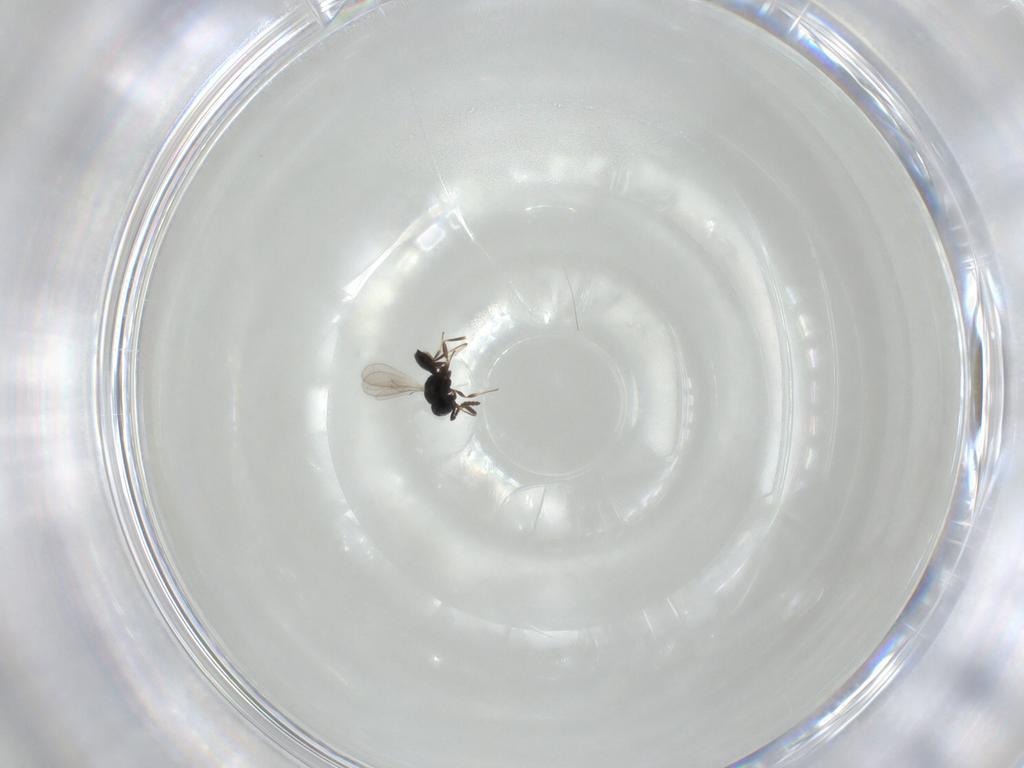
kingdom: Animalia
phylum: Arthropoda
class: Insecta
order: Hymenoptera
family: Scelionidae
